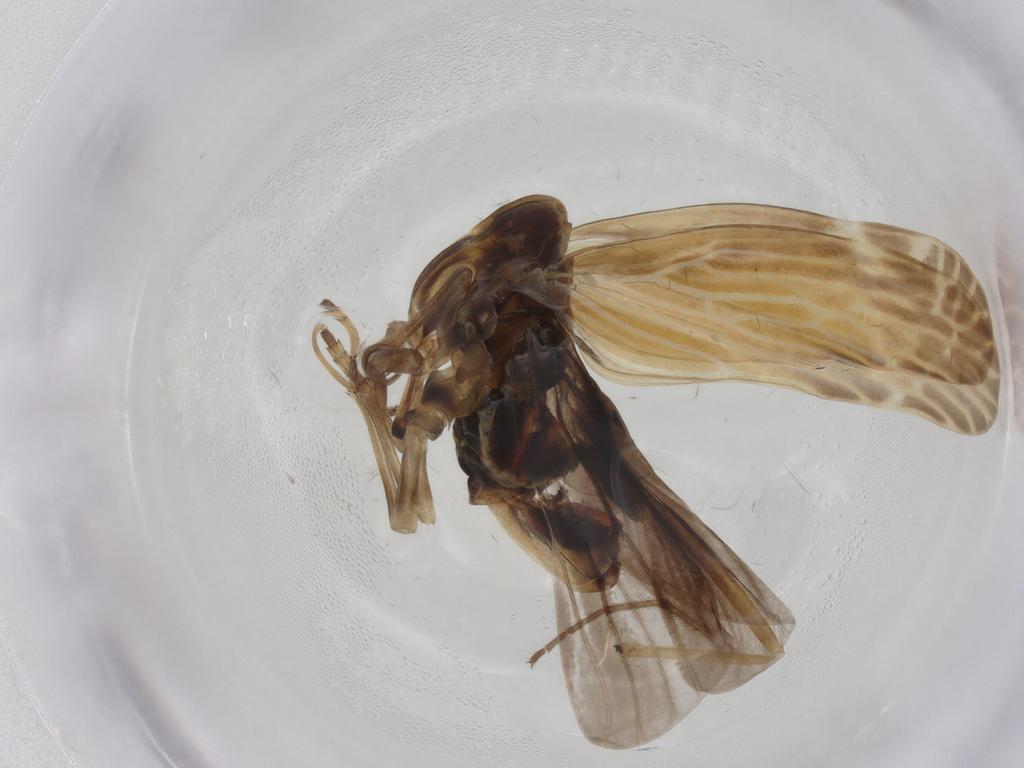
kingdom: Animalia
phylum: Arthropoda
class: Insecta
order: Hemiptera
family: Derbidae
